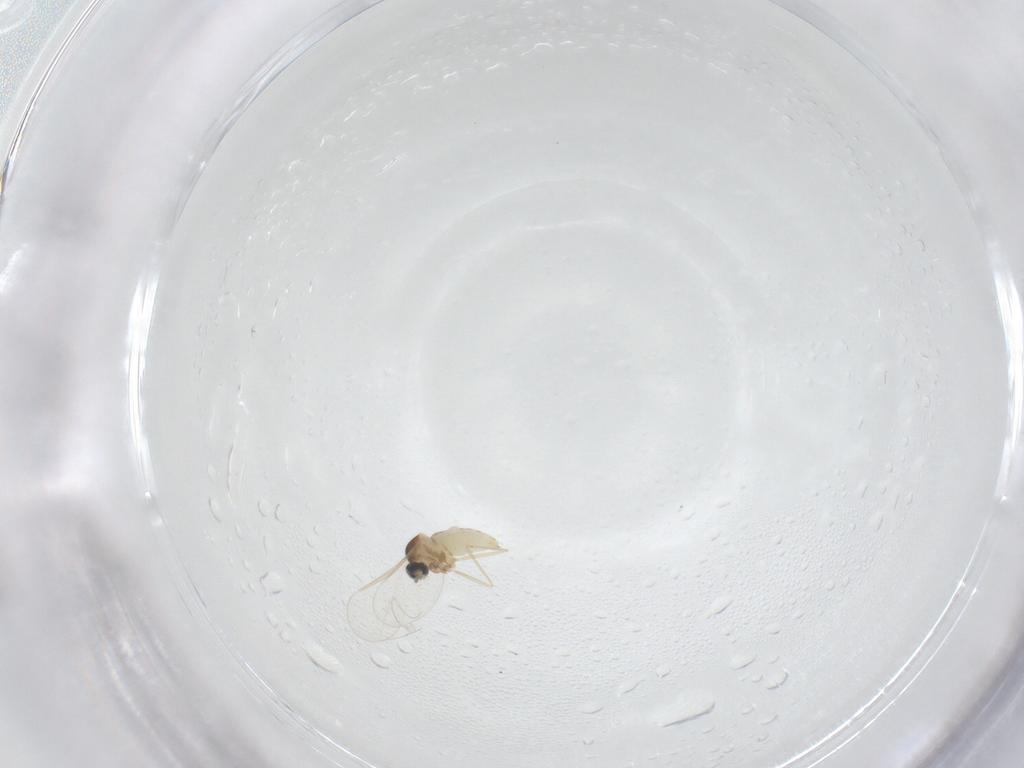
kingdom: Animalia
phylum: Arthropoda
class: Insecta
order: Diptera
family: Cecidomyiidae
